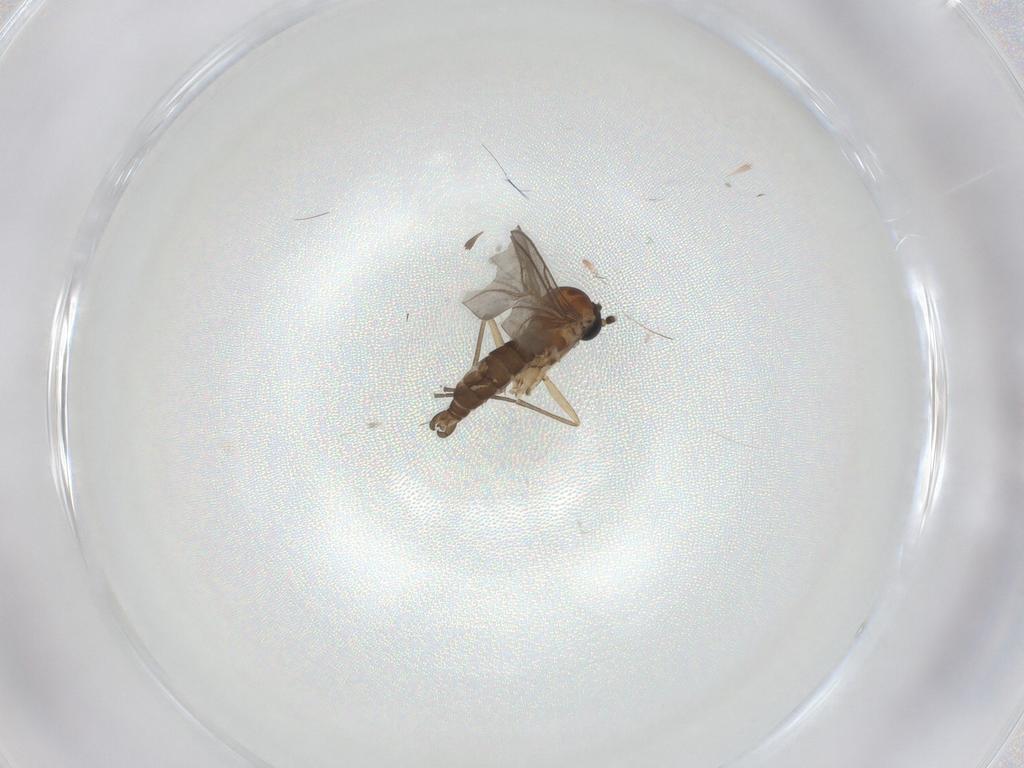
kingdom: Animalia
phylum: Arthropoda
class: Insecta
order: Diptera
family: Sciaridae
